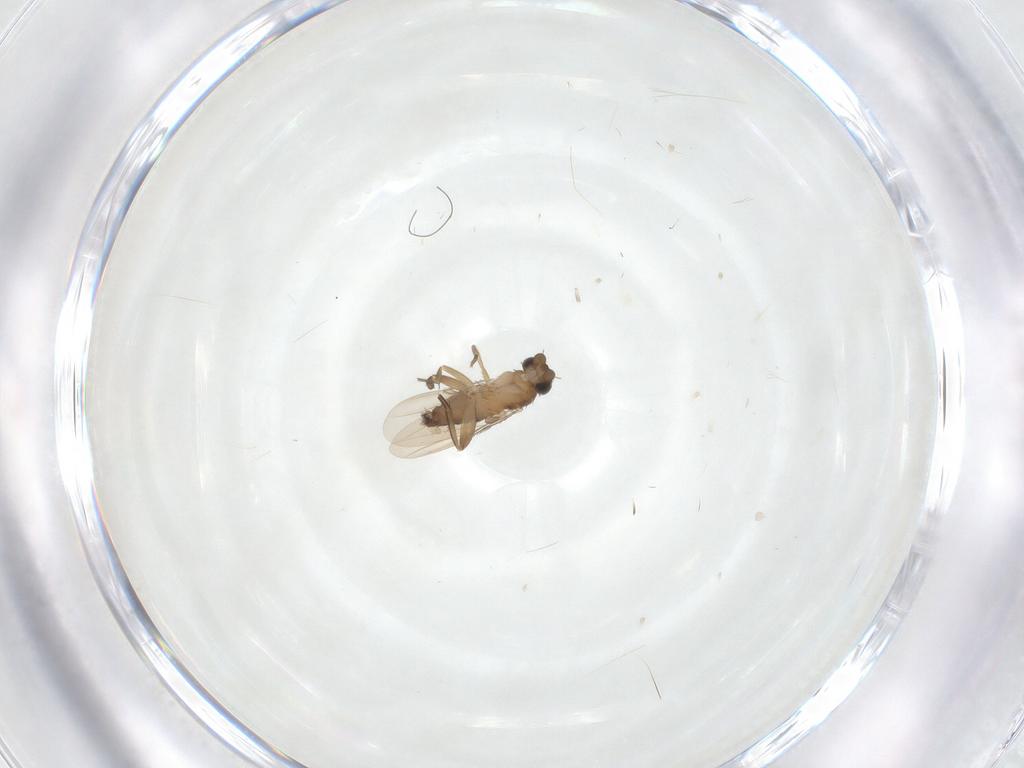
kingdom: Animalia
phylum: Arthropoda
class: Insecta
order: Diptera
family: Phoridae
